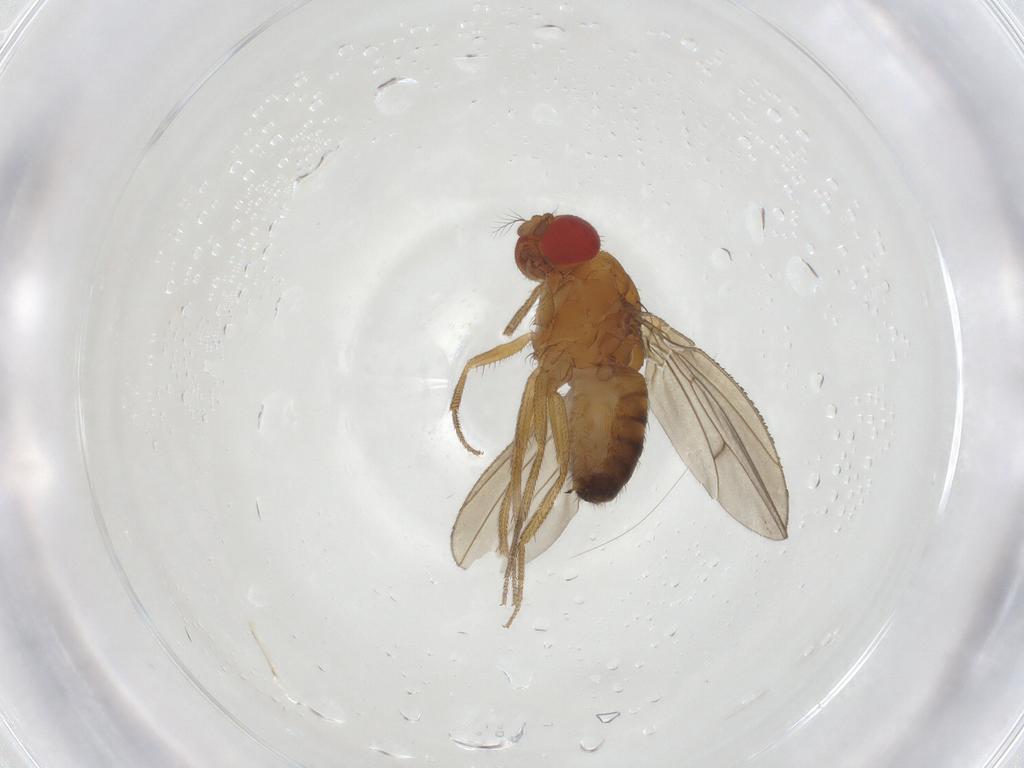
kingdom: Animalia
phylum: Arthropoda
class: Insecta
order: Diptera
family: Drosophilidae
